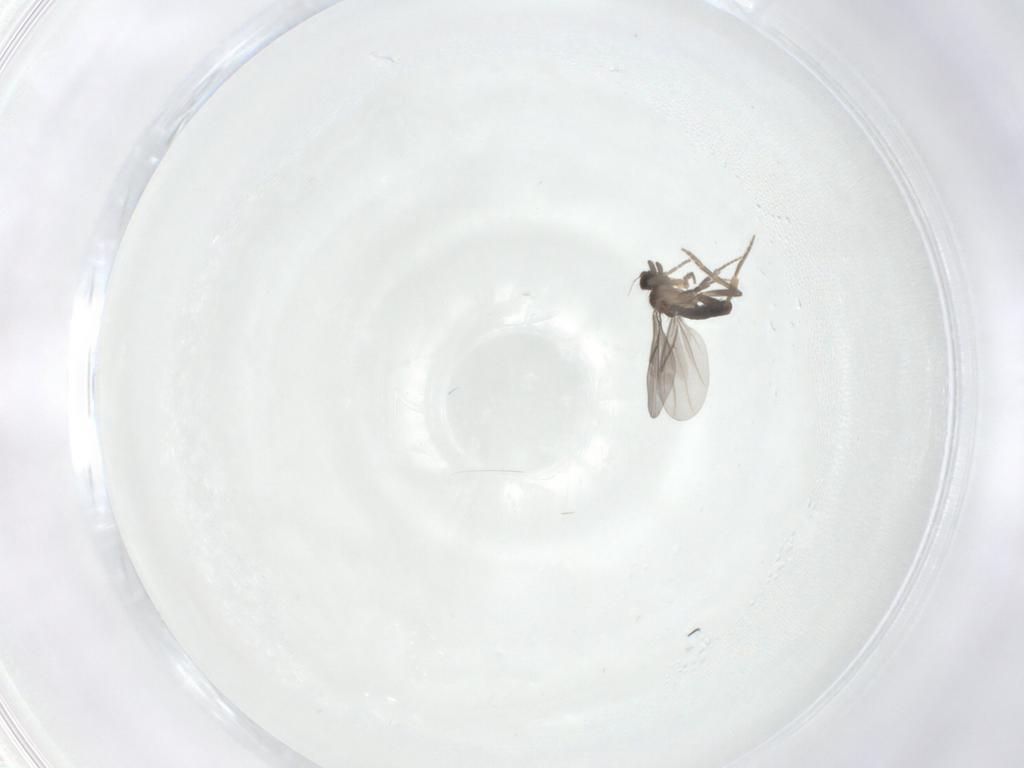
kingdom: Animalia
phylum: Arthropoda
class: Insecta
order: Diptera
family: Cecidomyiidae
